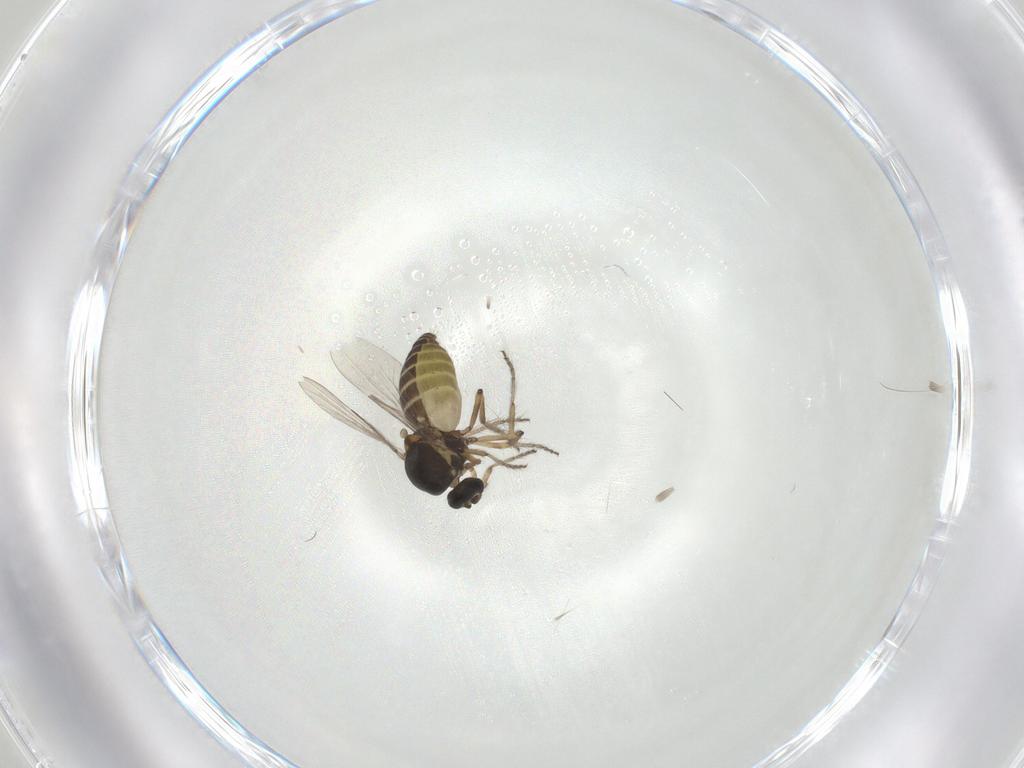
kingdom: Animalia
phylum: Arthropoda
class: Insecta
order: Diptera
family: Ceratopogonidae
